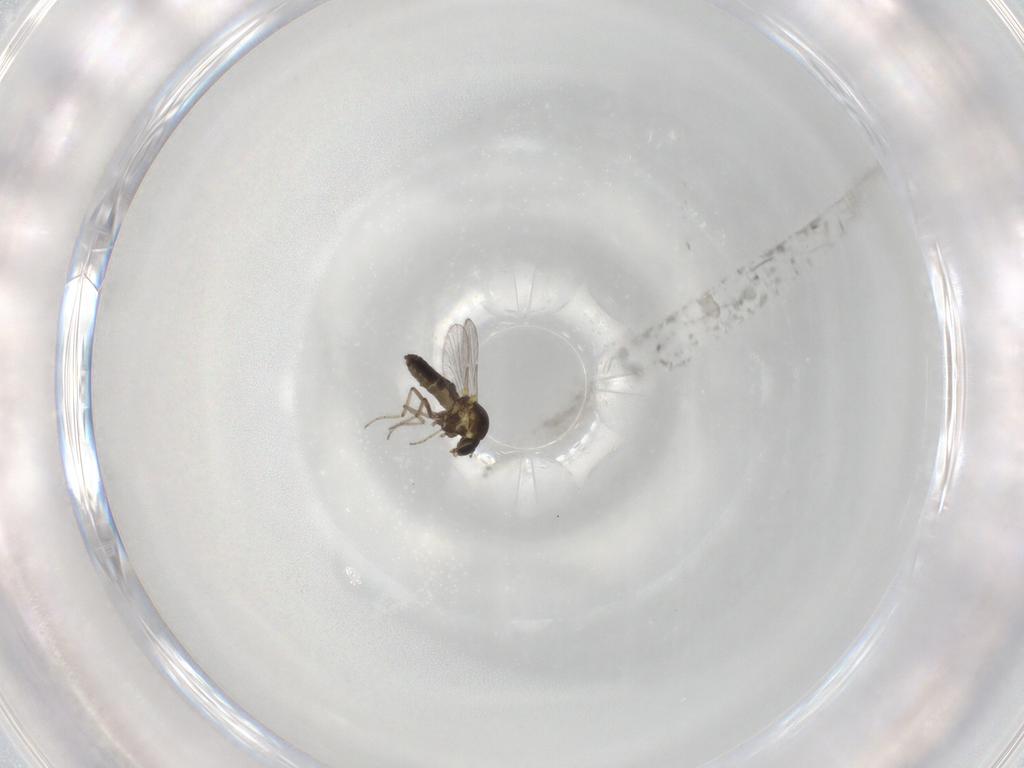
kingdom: Animalia
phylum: Arthropoda
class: Insecta
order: Diptera
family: Ceratopogonidae
